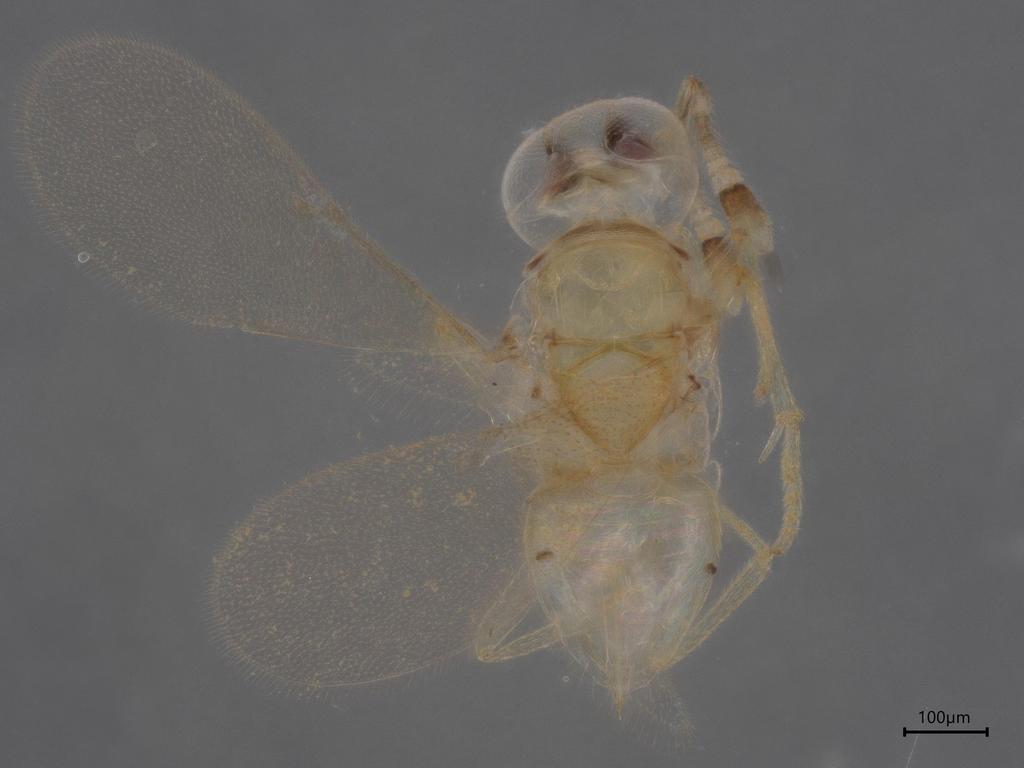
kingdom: Animalia
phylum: Arthropoda
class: Insecta
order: Hymenoptera
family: Encyrtidae
